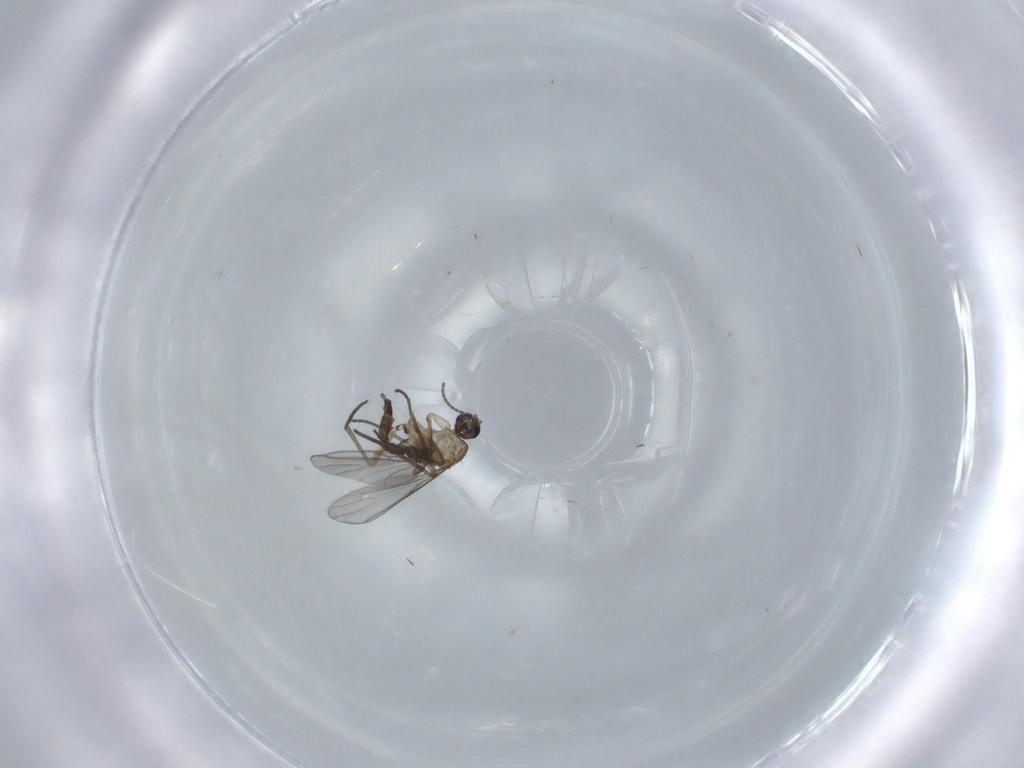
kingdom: Animalia
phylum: Arthropoda
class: Insecta
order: Diptera
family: Sciaridae
